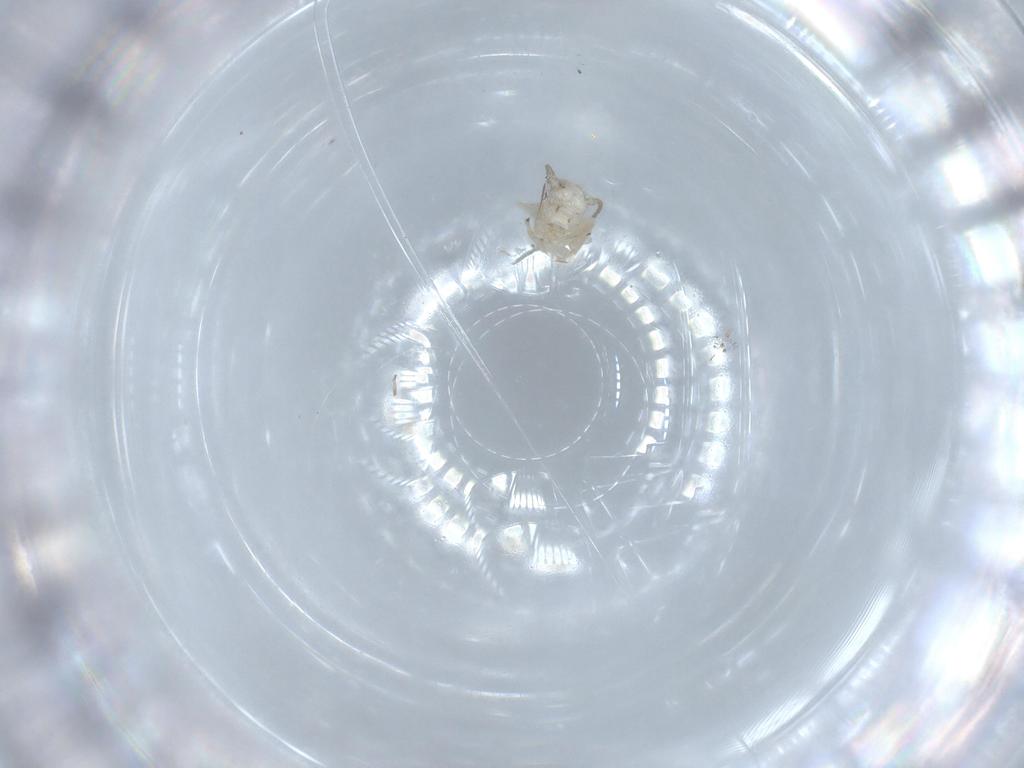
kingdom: Animalia
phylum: Arthropoda
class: Insecta
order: Psocodea
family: Caeciliusidae
